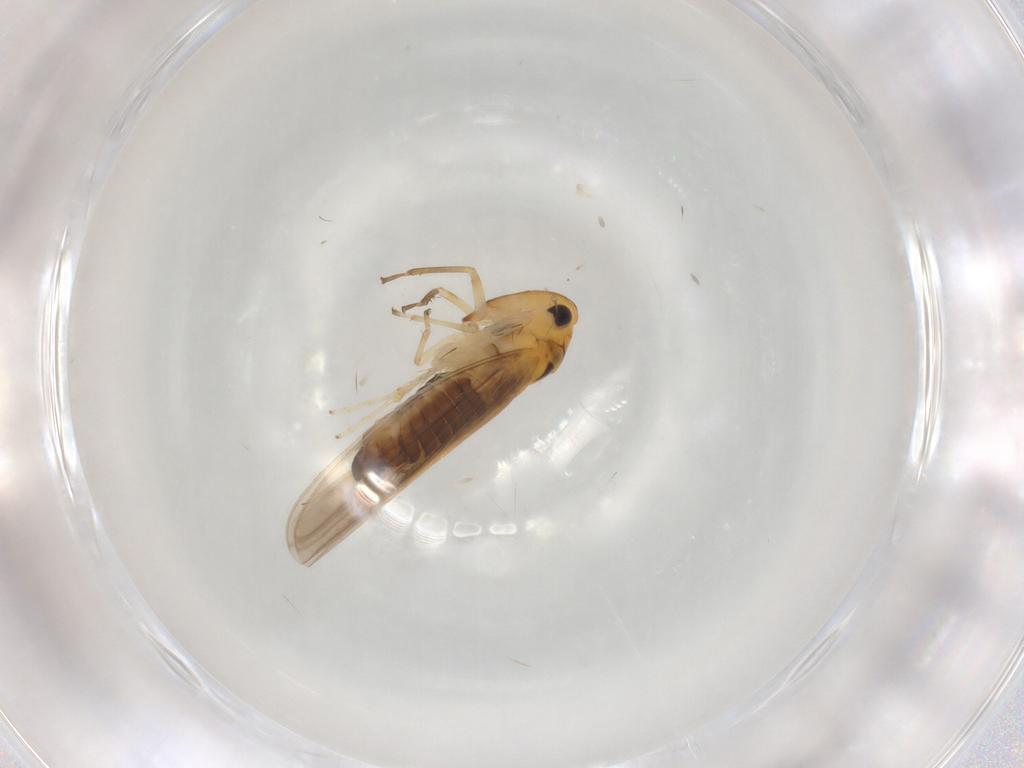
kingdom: Animalia
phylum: Arthropoda
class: Insecta
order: Hemiptera
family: Cicadellidae
